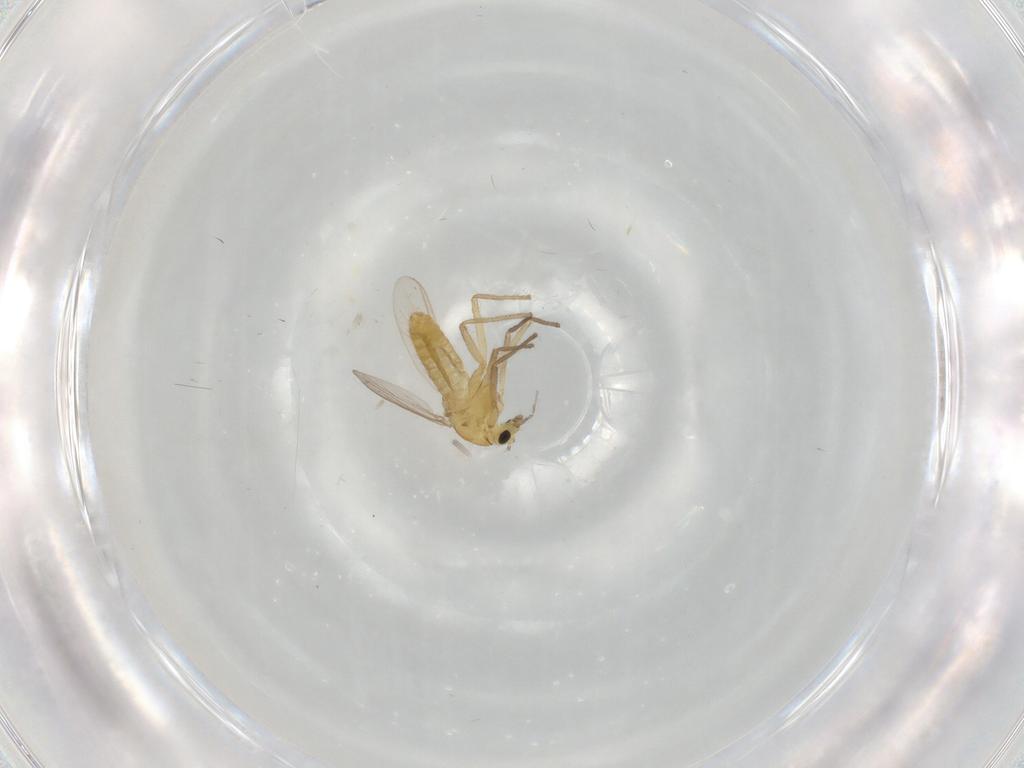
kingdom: Animalia
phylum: Arthropoda
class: Insecta
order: Diptera
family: Chironomidae
